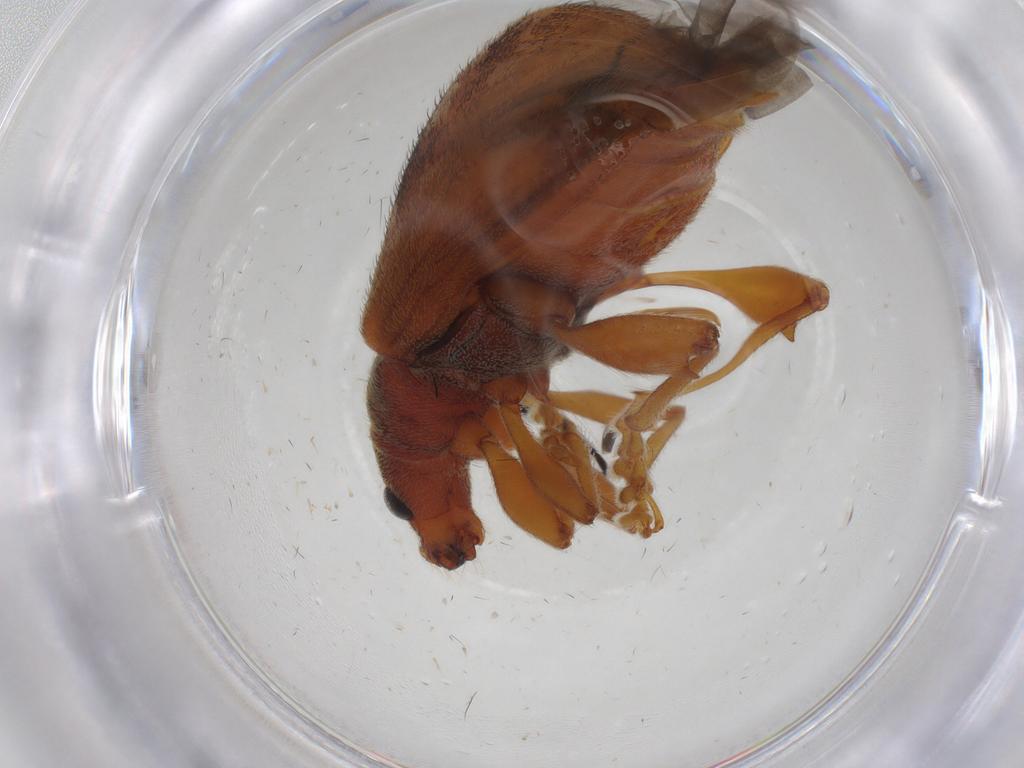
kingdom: Animalia
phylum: Arthropoda
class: Insecta
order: Coleoptera
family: Curculionidae
